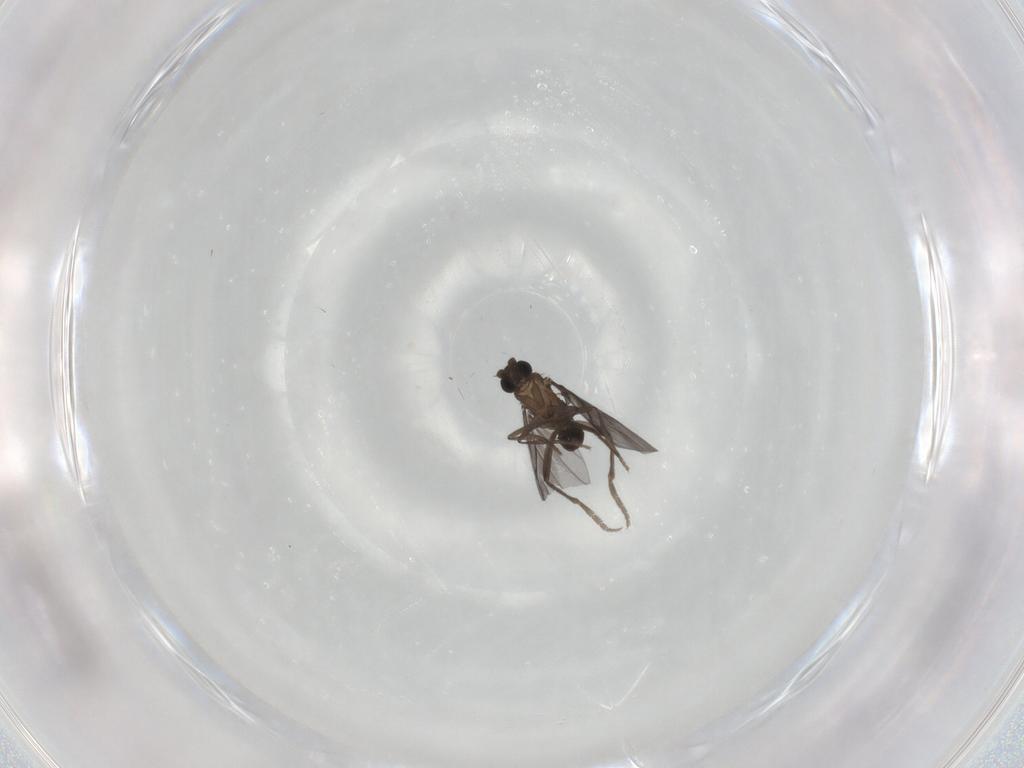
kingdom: Animalia
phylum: Arthropoda
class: Insecta
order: Diptera
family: Phoridae
